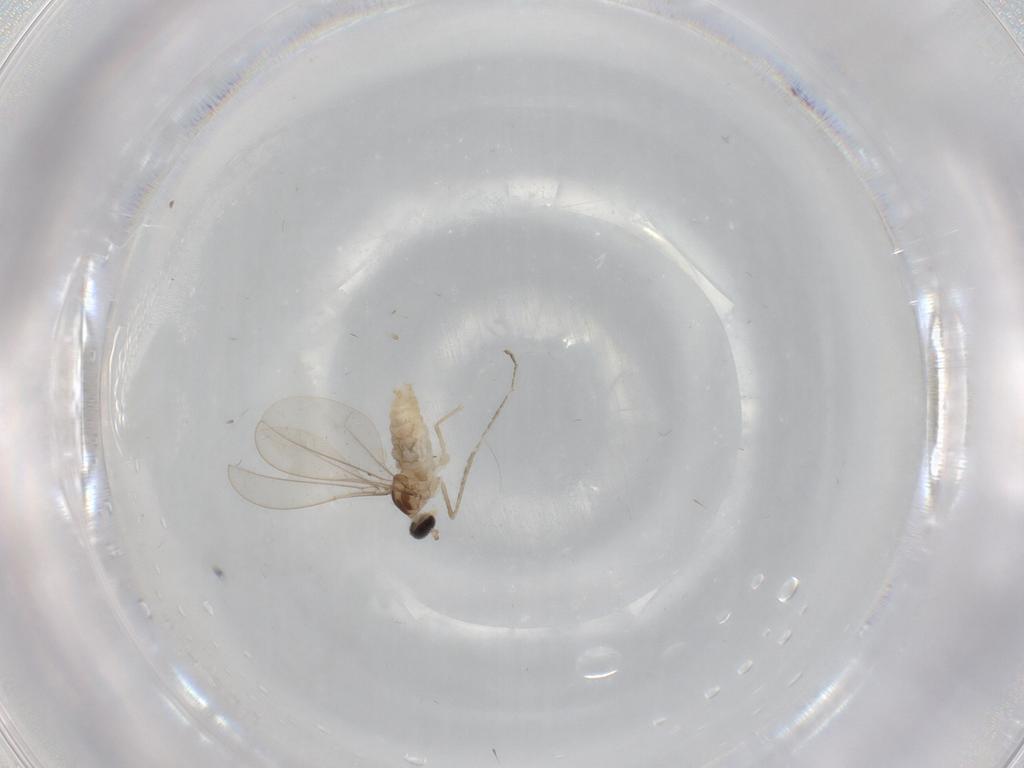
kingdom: Animalia
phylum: Arthropoda
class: Insecta
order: Diptera
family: Cecidomyiidae
